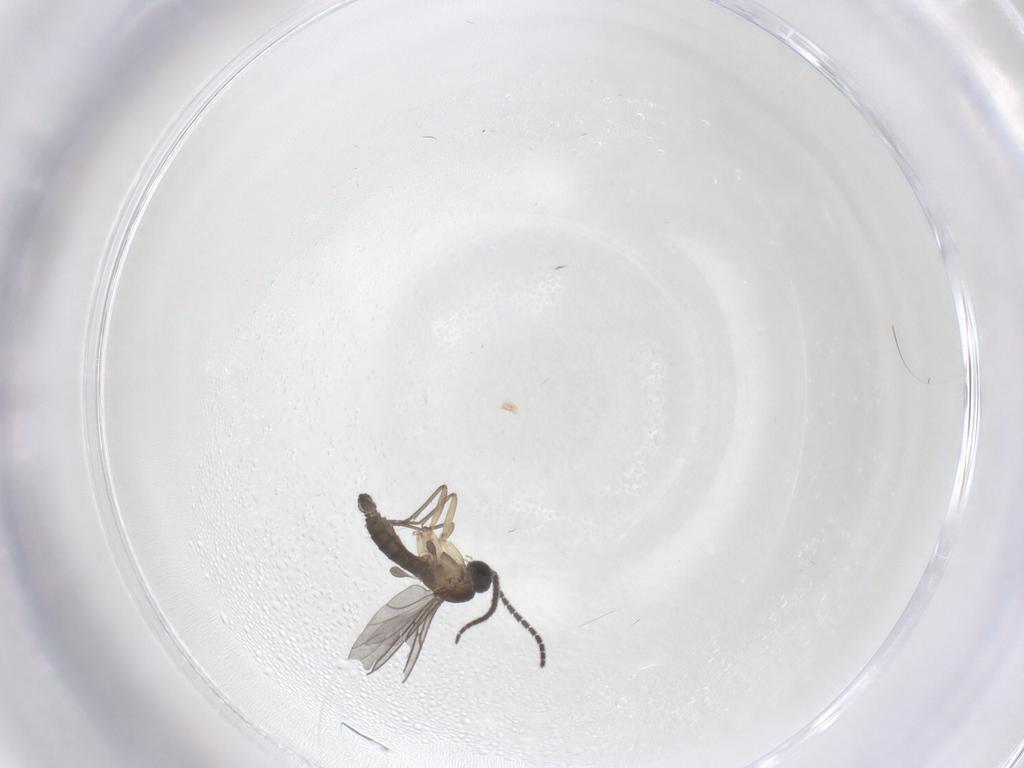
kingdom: Animalia
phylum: Arthropoda
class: Insecta
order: Diptera
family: Sciaridae
